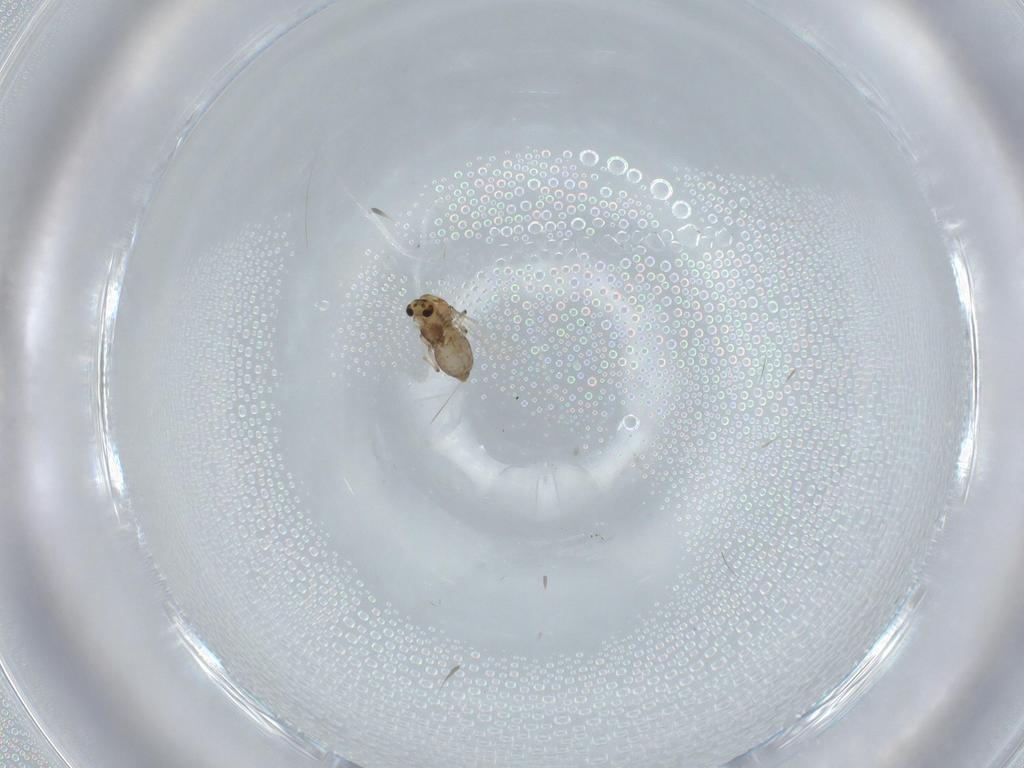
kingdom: Animalia
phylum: Arthropoda
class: Insecta
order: Diptera
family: Chironomidae
